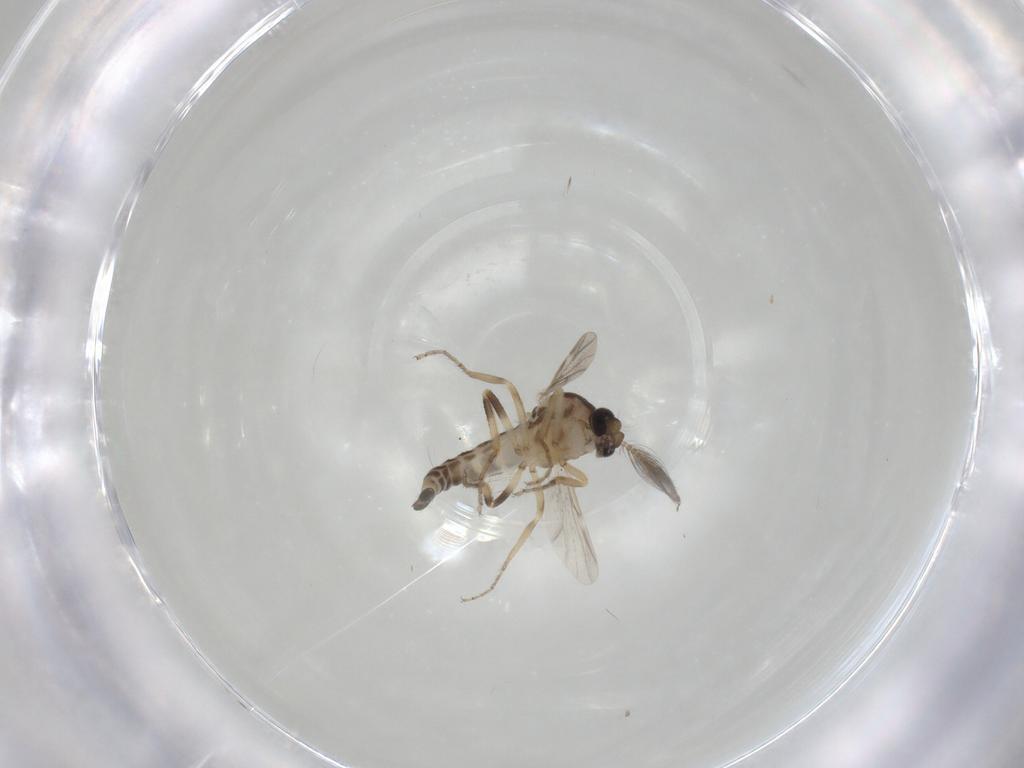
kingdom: Animalia
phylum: Arthropoda
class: Insecta
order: Diptera
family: Ceratopogonidae
